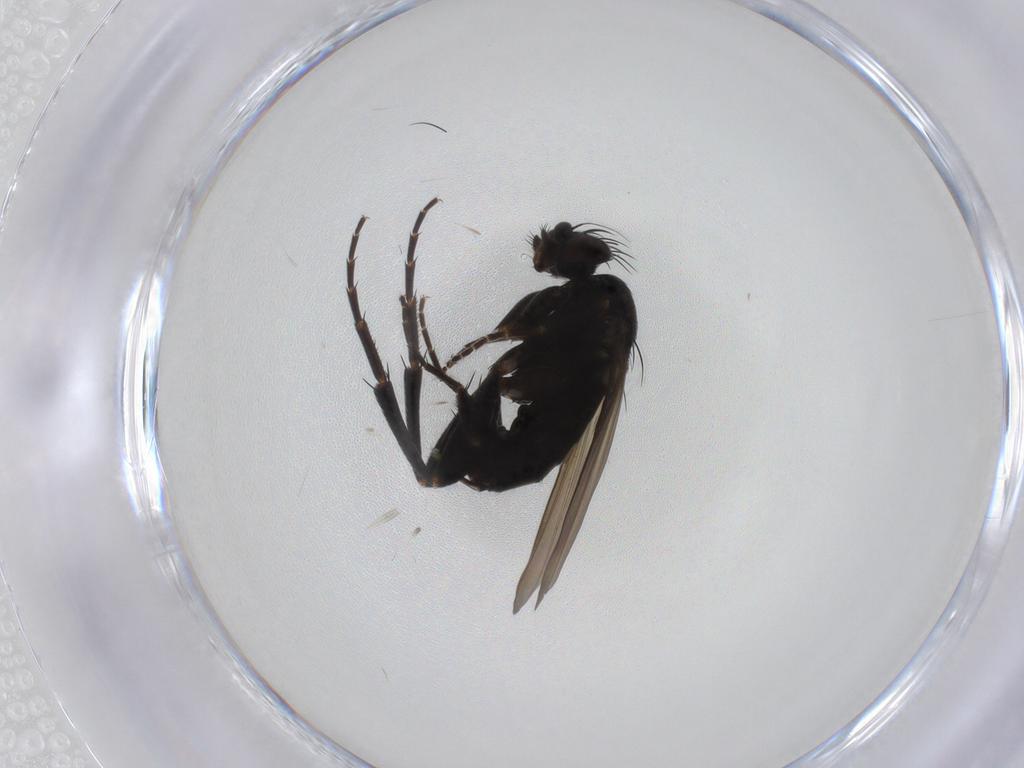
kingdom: Animalia
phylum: Arthropoda
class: Insecta
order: Diptera
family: Phoridae
